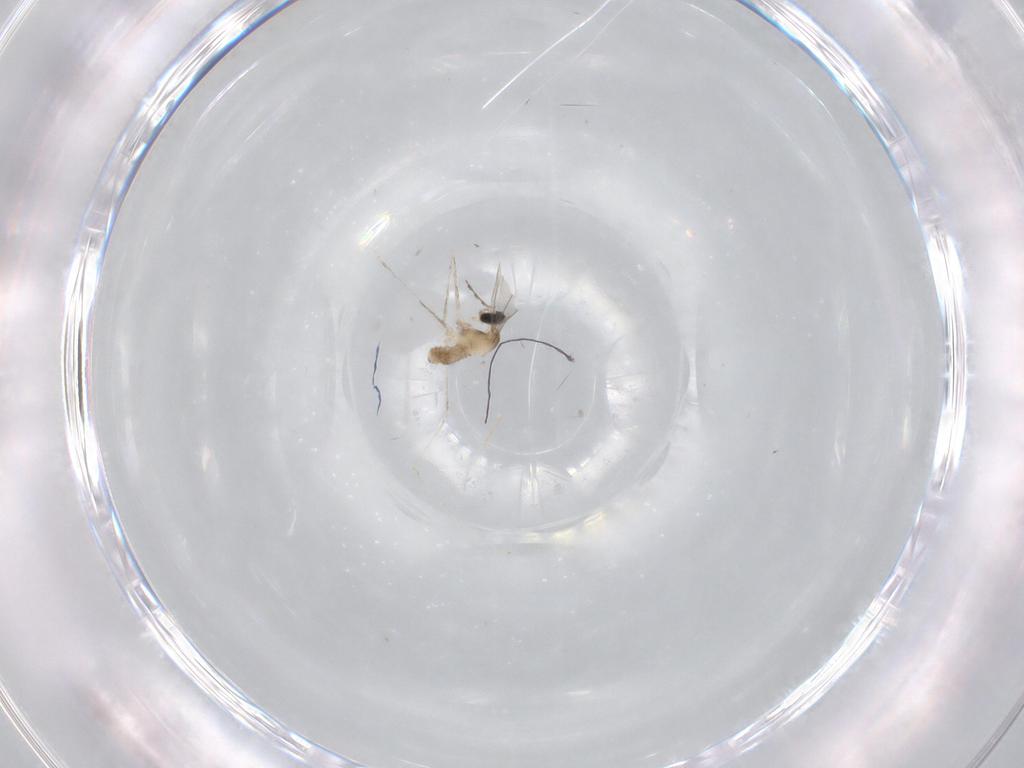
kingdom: Animalia
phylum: Arthropoda
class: Insecta
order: Diptera
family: Cecidomyiidae
